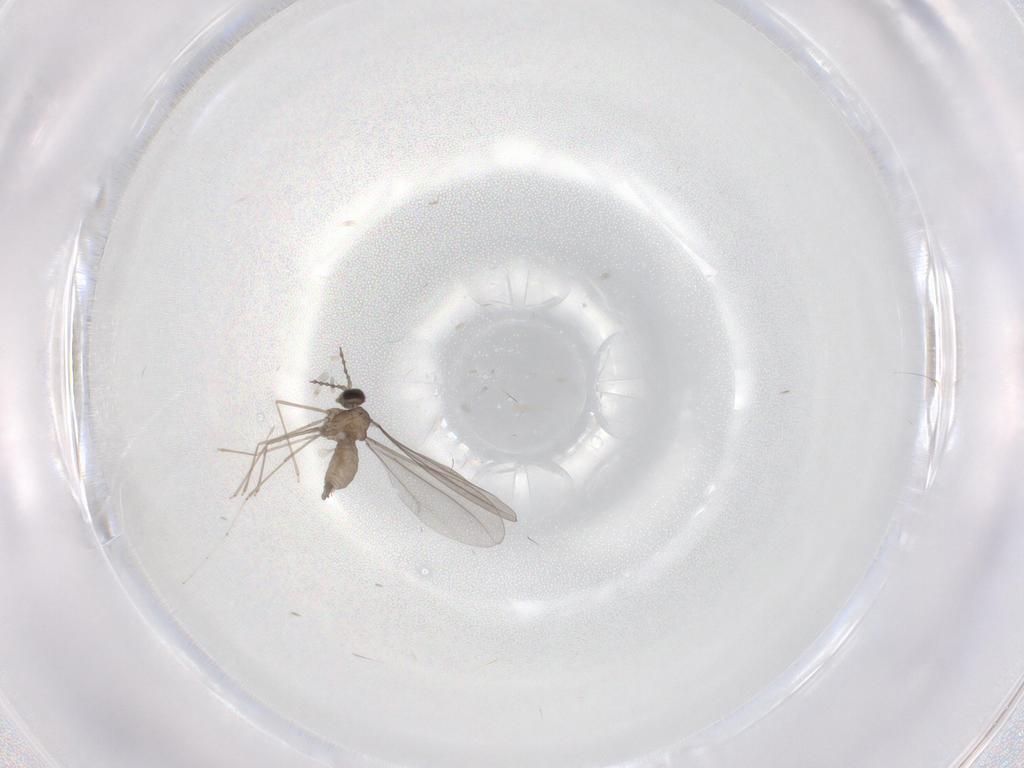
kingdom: Animalia
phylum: Arthropoda
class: Insecta
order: Diptera
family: Cecidomyiidae
